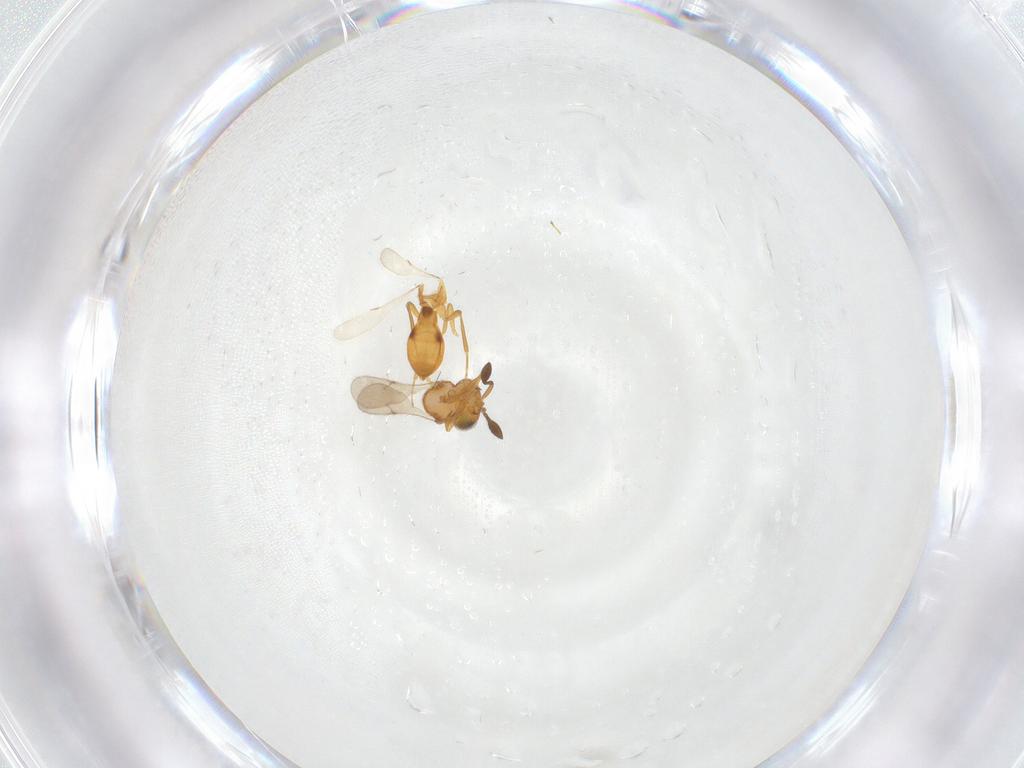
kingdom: Animalia
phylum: Arthropoda
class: Insecta
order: Hymenoptera
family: Scelionidae
